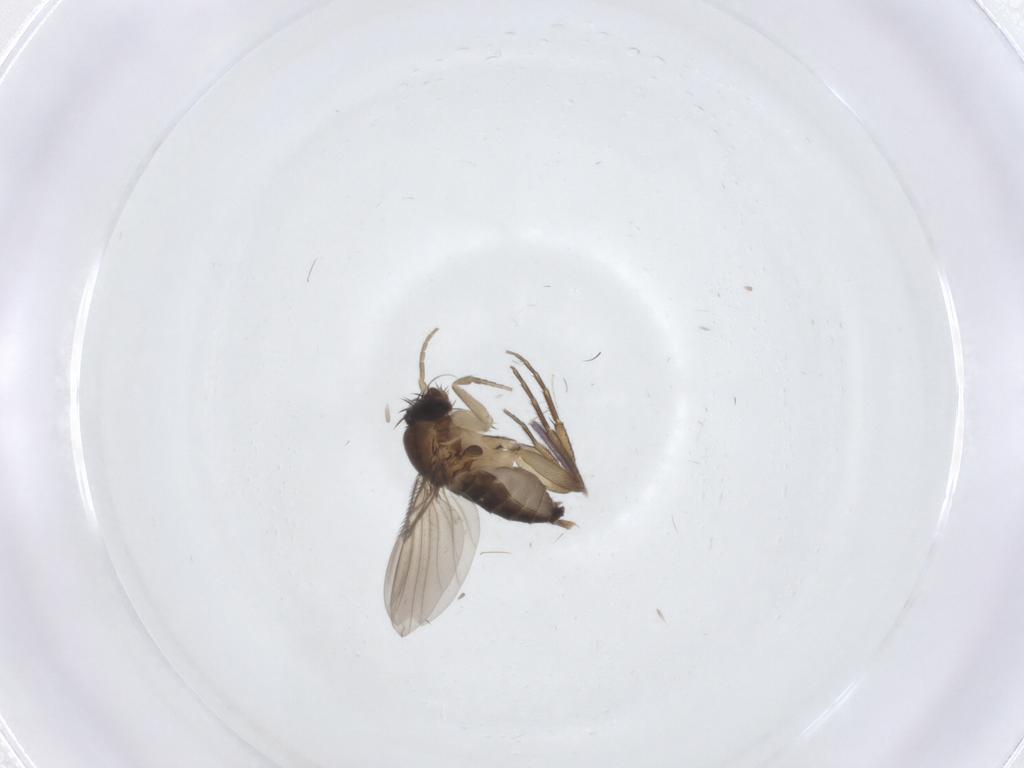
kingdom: Animalia
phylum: Arthropoda
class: Insecta
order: Diptera
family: Phoridae
